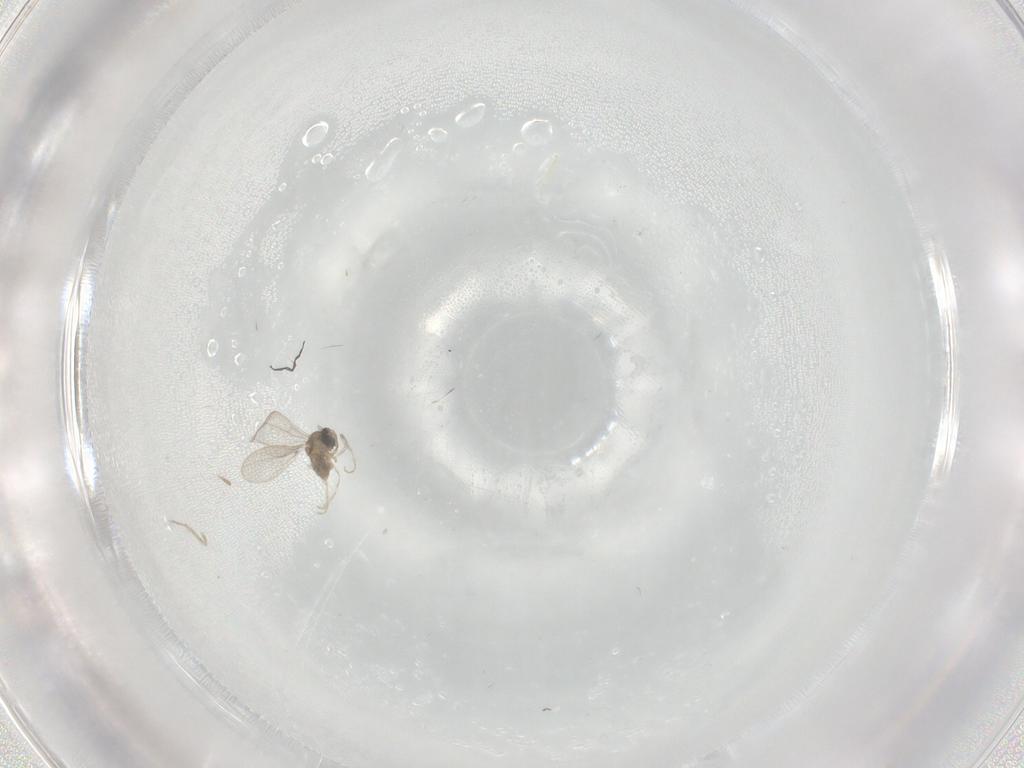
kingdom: Animalia
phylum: Arthropoda
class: Insecta
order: Diptera
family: Cecidomyiidae
